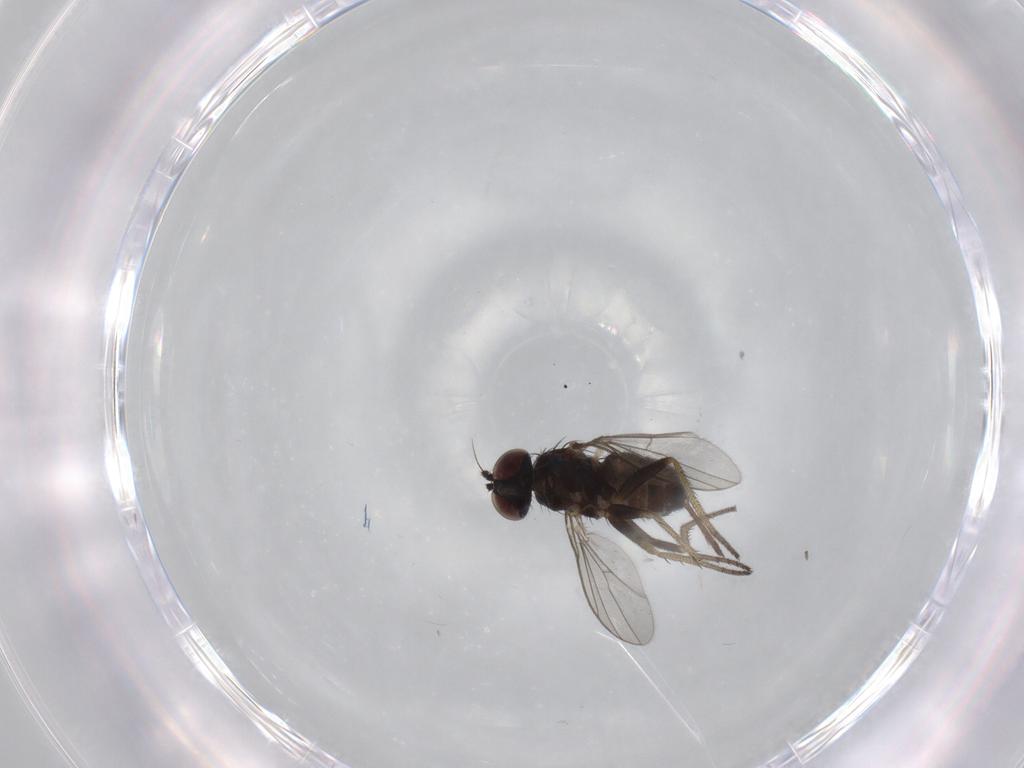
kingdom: Animalia
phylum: Arthropoda
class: Insecta
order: Diptera
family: Dolichopodidae
